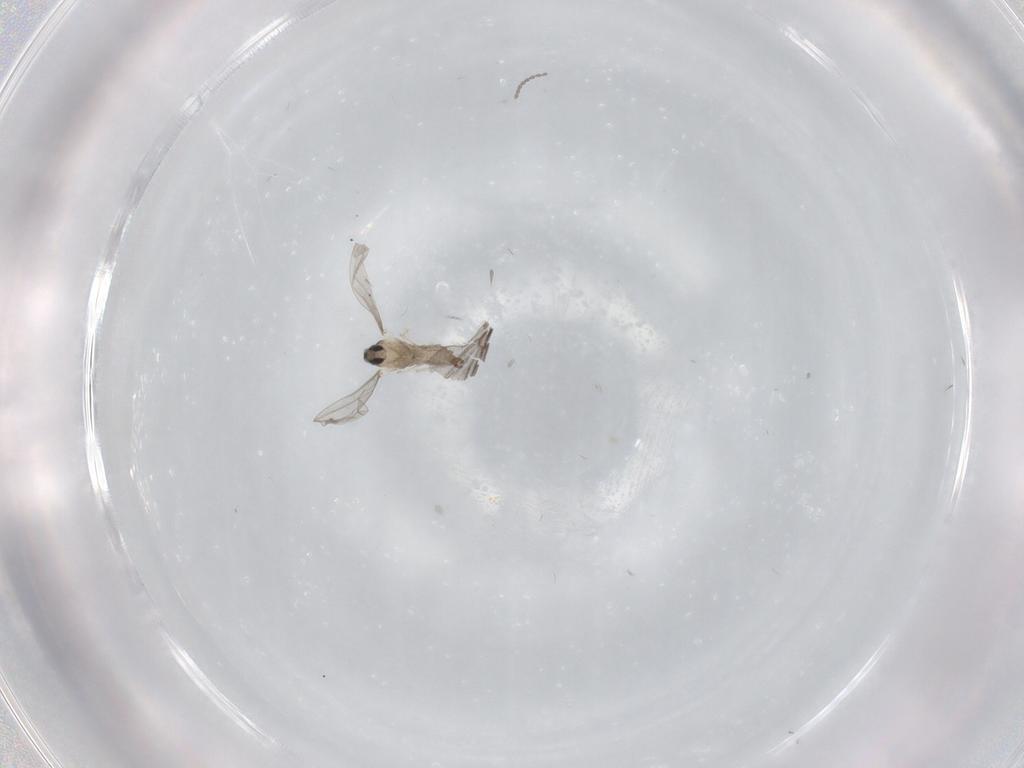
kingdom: Animalia
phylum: Arthropoda
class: Insecta
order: Diptera
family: Cecidomyiidae
